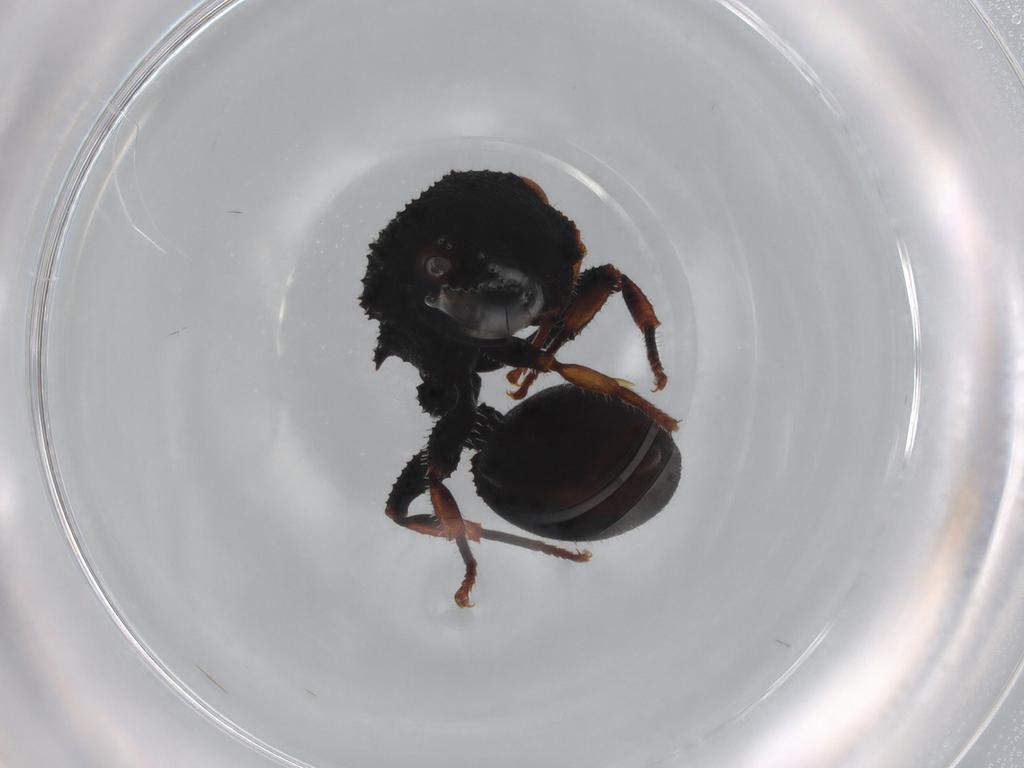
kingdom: Animalia
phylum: Arthropoda
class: Insecta
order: Hymenoptera
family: Formicidae
